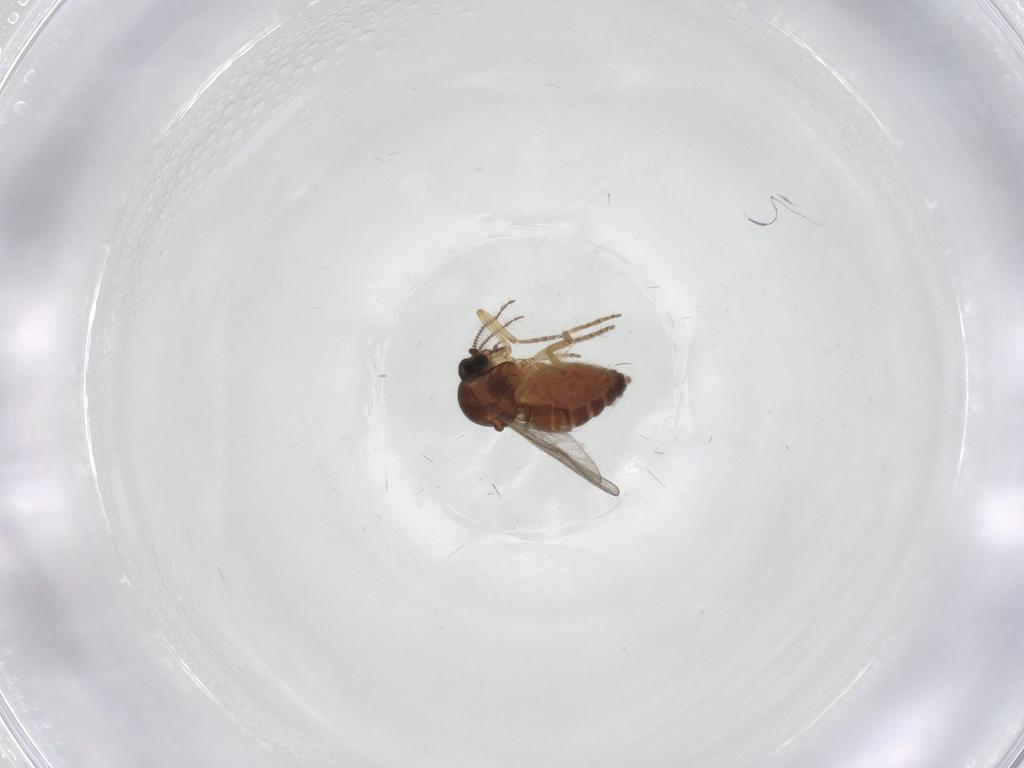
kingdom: Animalia
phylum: Arthropoda
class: Insecta
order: Diptera
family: Ceratopogonidae
